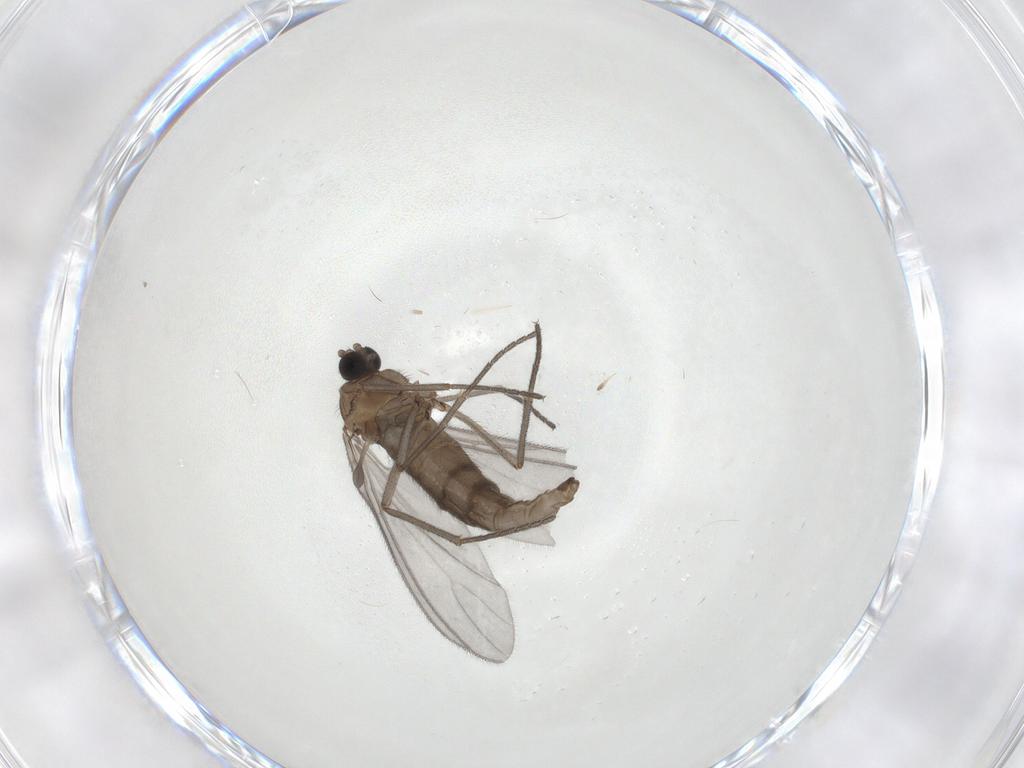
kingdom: Animalia
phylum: Arthropoda
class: Insecta
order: Diptera
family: Sciaridae
